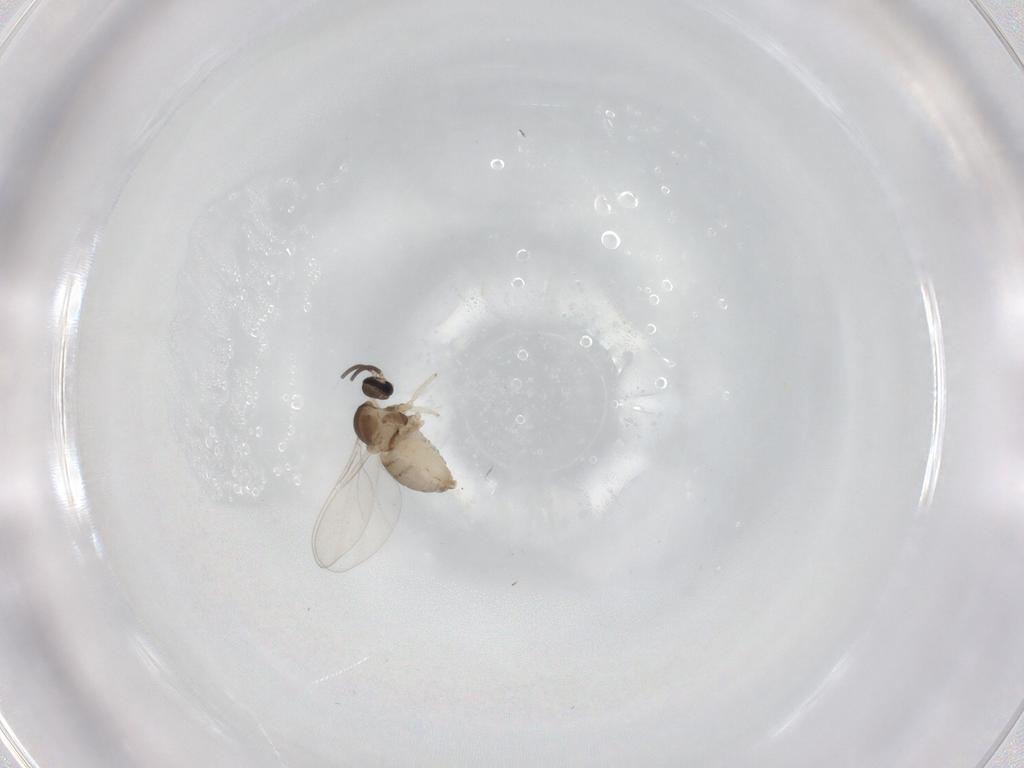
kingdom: Animalia
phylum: Arthropoda
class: Insecta
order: Diptera
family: Cecidomyiidae
